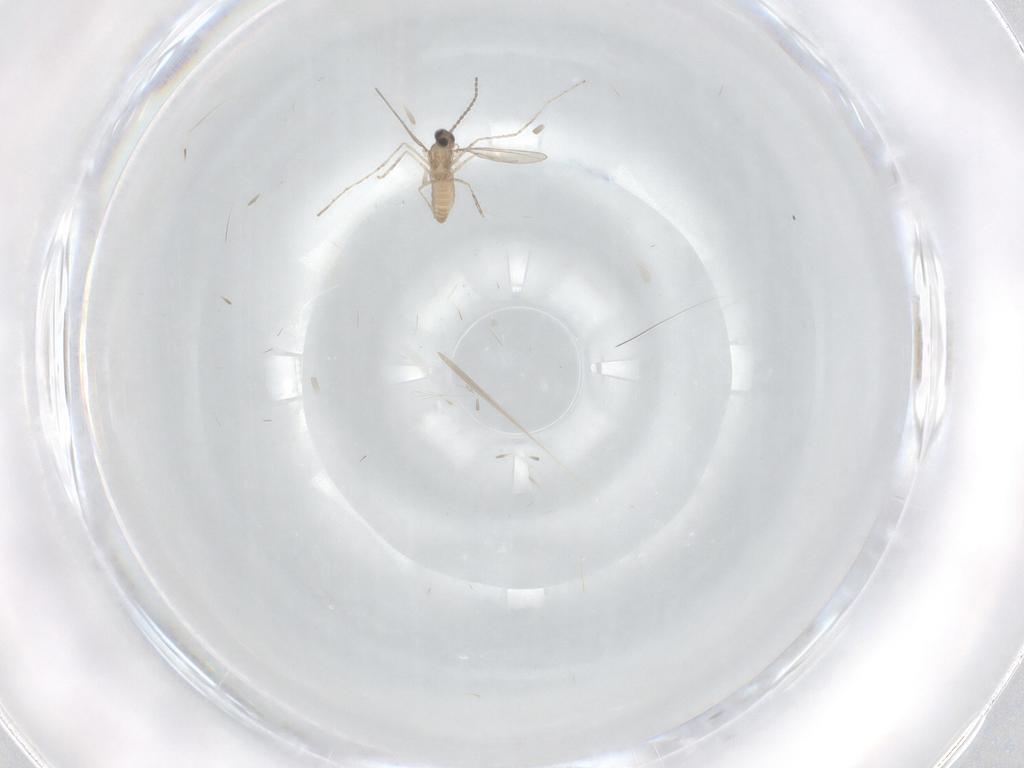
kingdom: Animalia
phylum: Arthropoda
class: Insecta
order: Diptera
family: Cecidomyiidae
